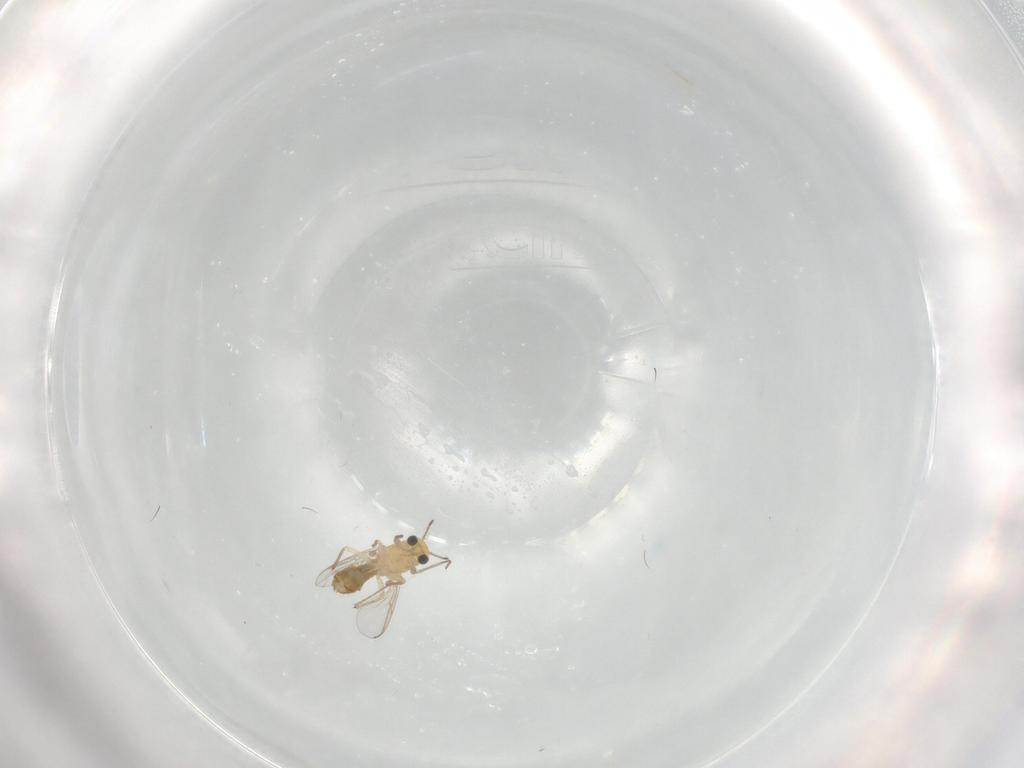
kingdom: Animalia
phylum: Arthropoda
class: Insecta
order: Diptera
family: Chironomidae
